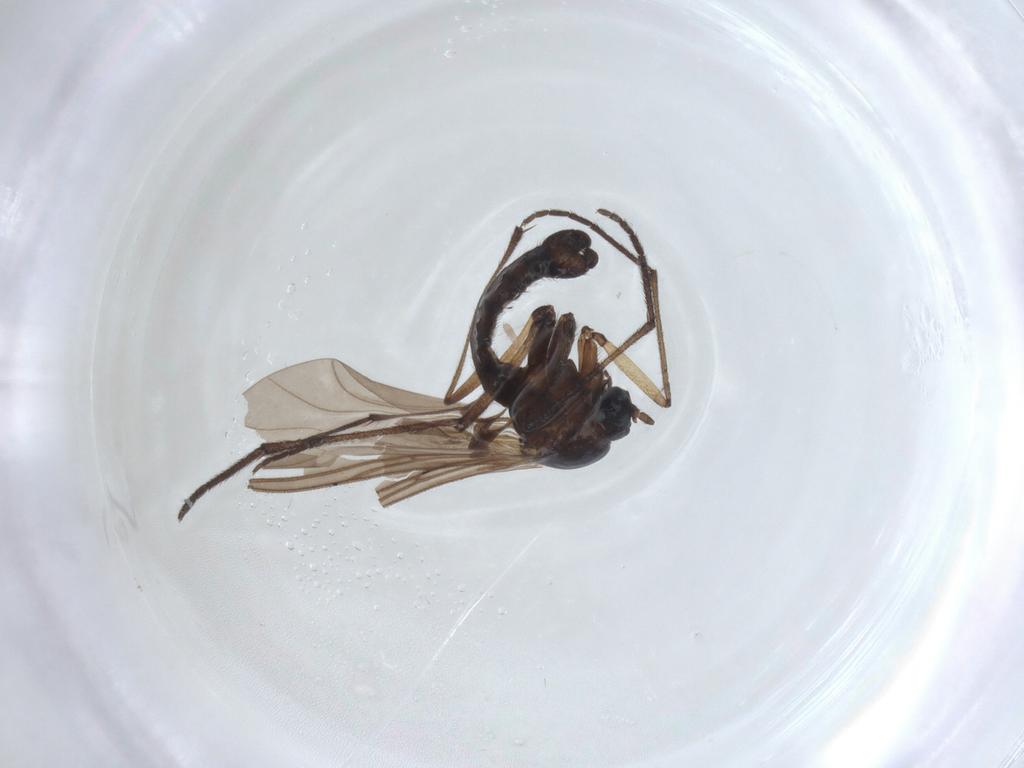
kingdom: Animalia
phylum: Arthropoda
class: Insecta
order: Diptera
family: Sciaridae
